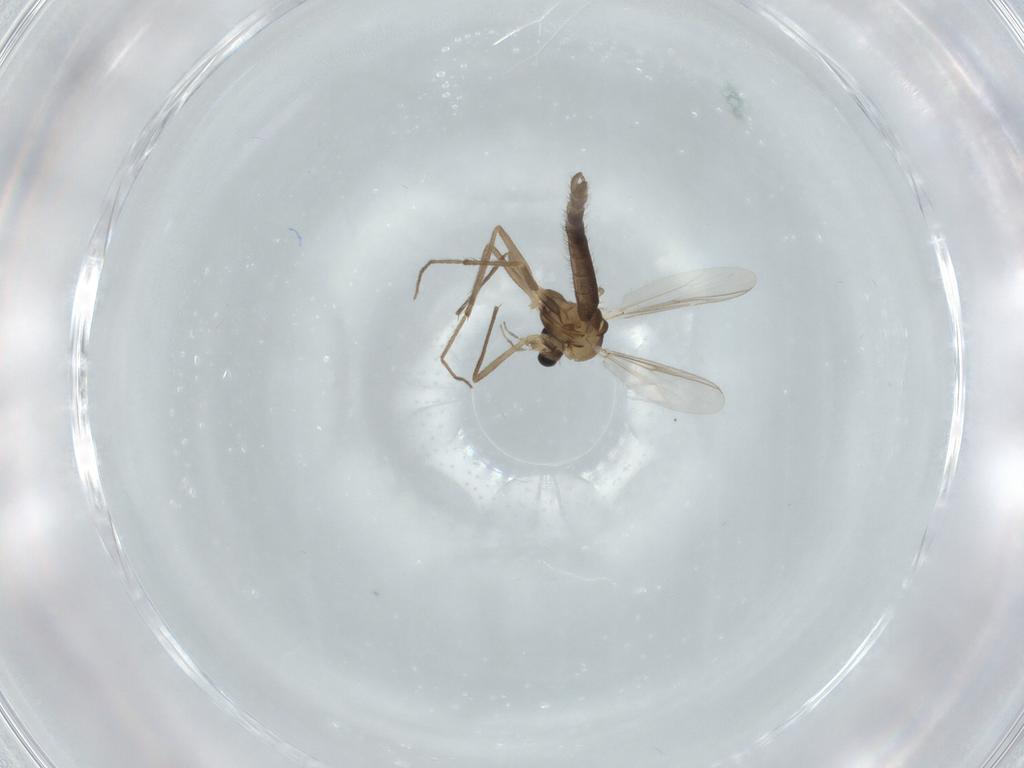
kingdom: Animalia
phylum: Arthropoda
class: Insecta
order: Diptera
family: Chironomidae
